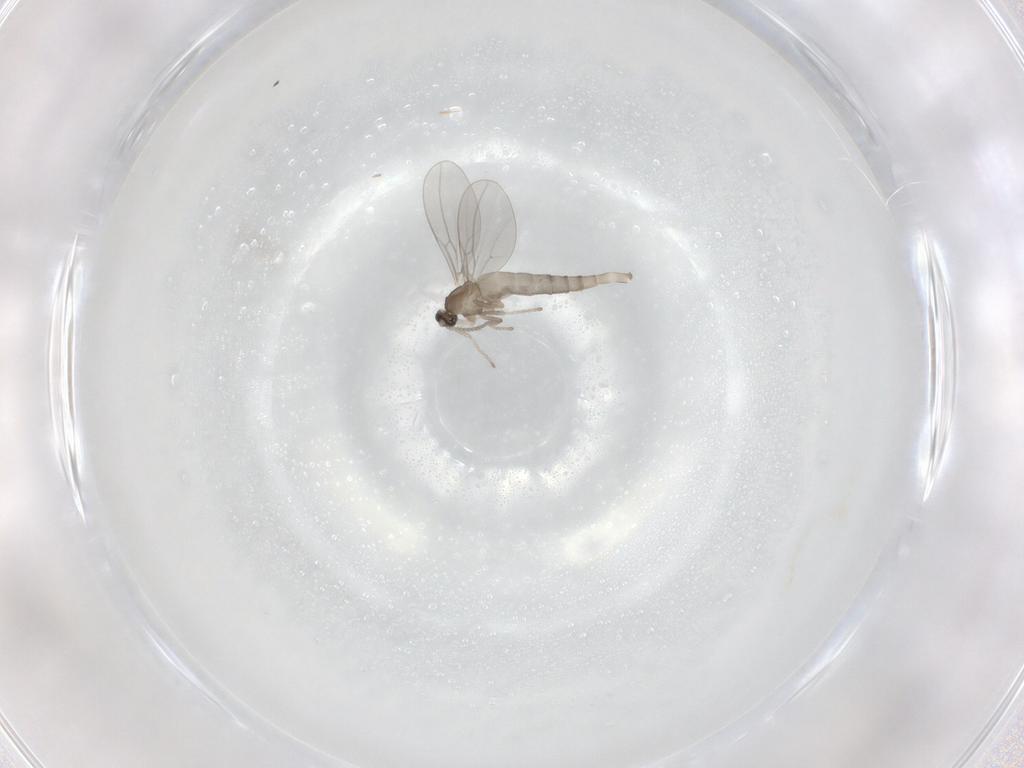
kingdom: Animalia
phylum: Arthropoda
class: Insecta
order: Diptera
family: Cecidomyiidae
